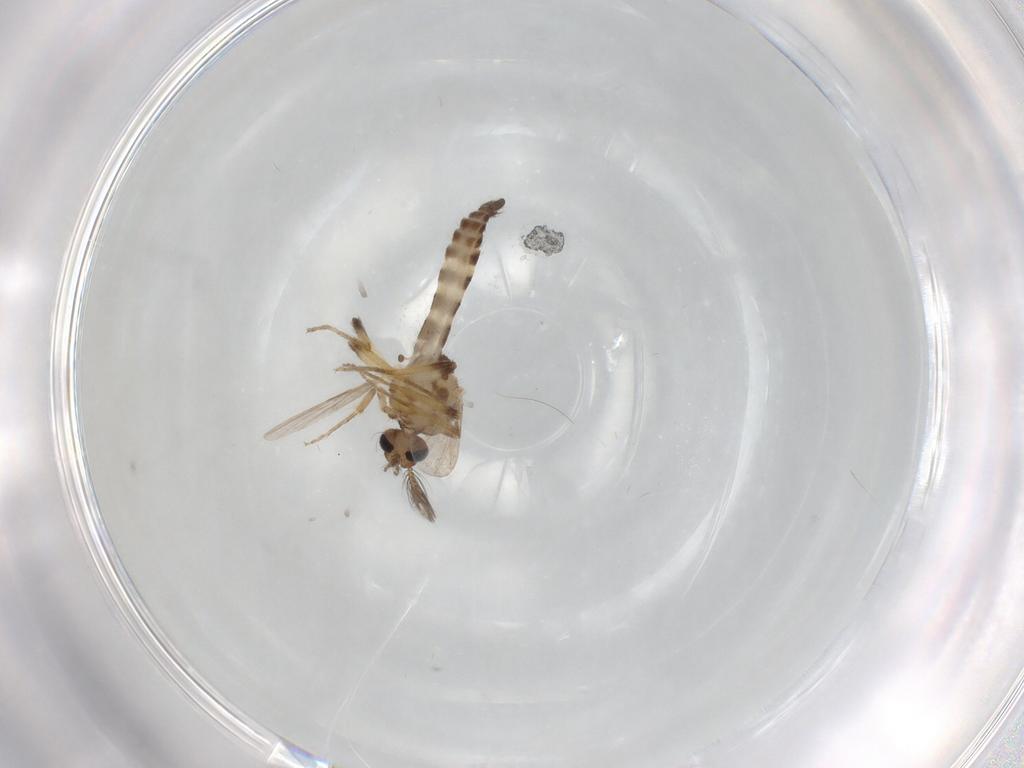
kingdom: Animalia
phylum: Arthropoda
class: Insecta
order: Diptera
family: Ceratopogonidae
